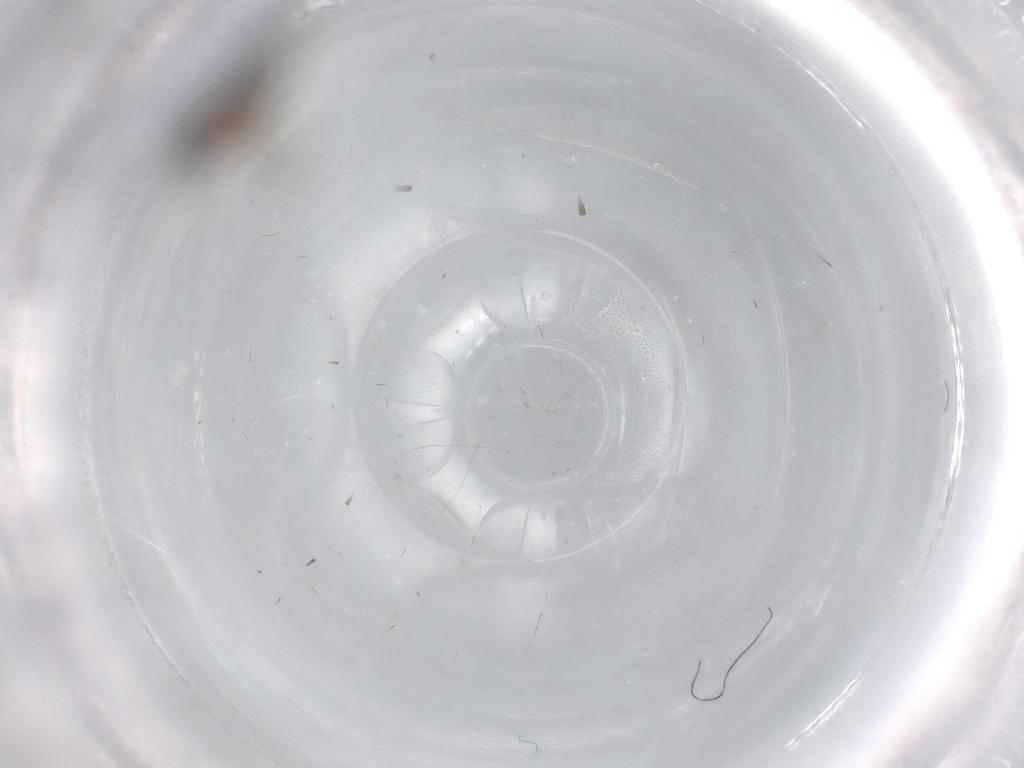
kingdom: Animalia
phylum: Arthropoda
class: Insecta
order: Diptera
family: Limoniidae
